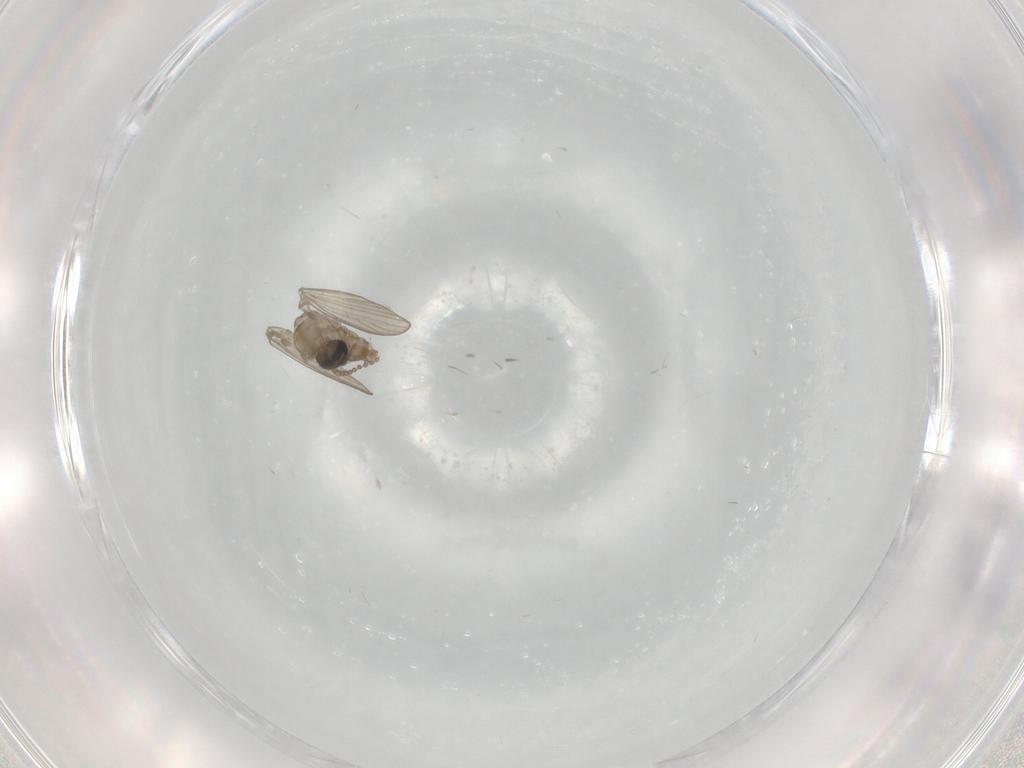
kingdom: Animalia
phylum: Arthropoda
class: Insecta
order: Diptera
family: Psychodidae
